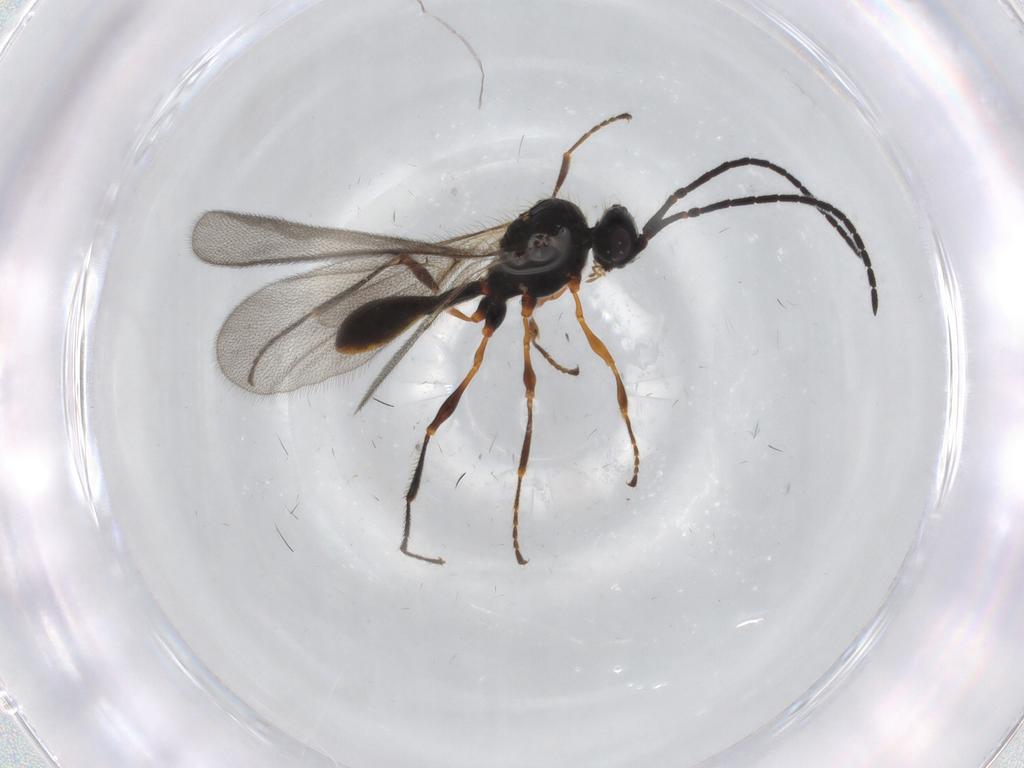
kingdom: Animalia
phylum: Arthropoda
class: Insecta
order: Hymenoptera
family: Diapriidae
